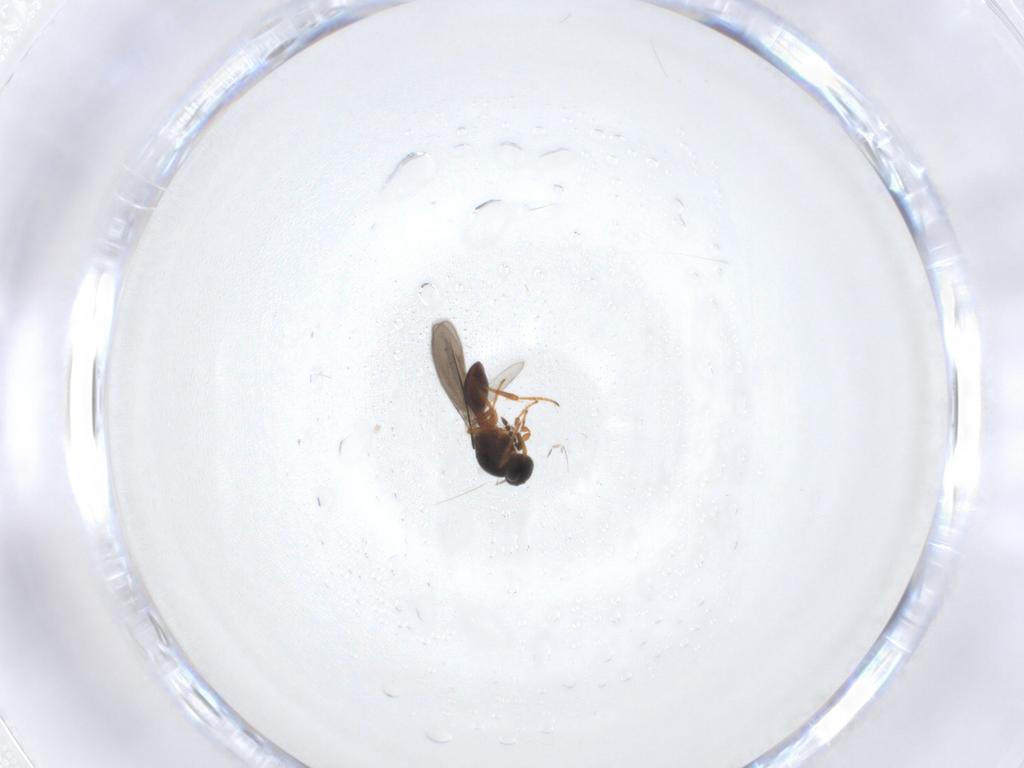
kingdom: Animalia
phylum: Arthropoda
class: Insecta
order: Hymenoptera
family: Platygastridae
